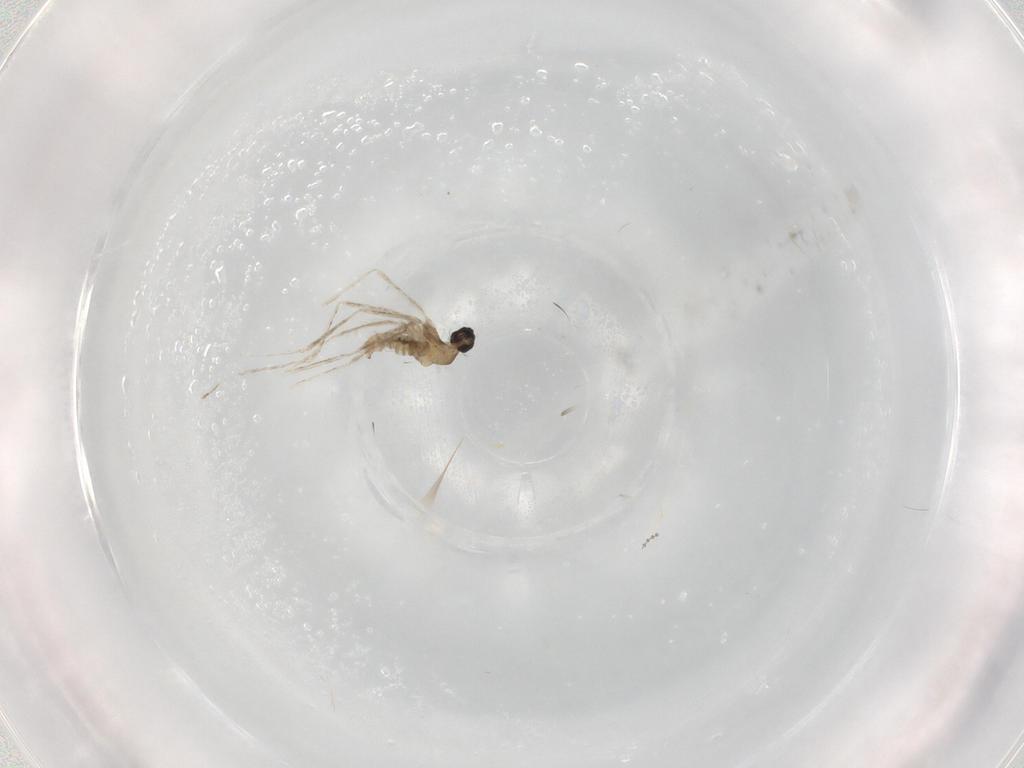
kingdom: Animalia
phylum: Arthropoda
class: Insecta
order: Diptera
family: Cecidomyiidae
